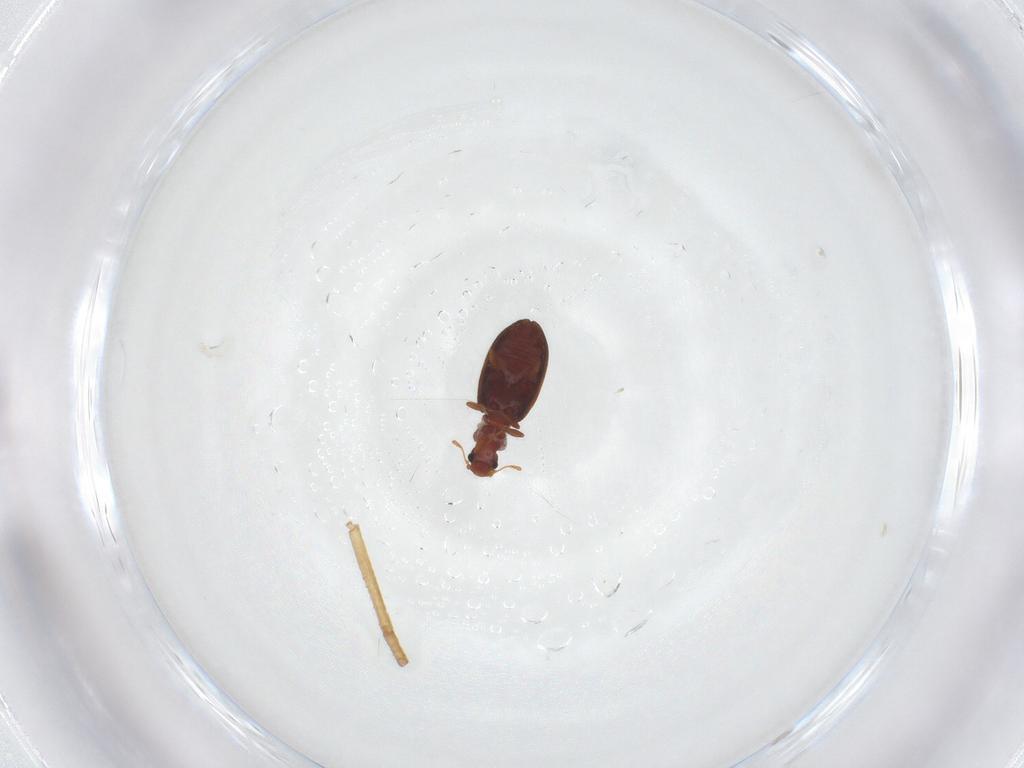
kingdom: Animalia
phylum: Arthropoda
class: Insecta
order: Coleoptera
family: Latridiidae
